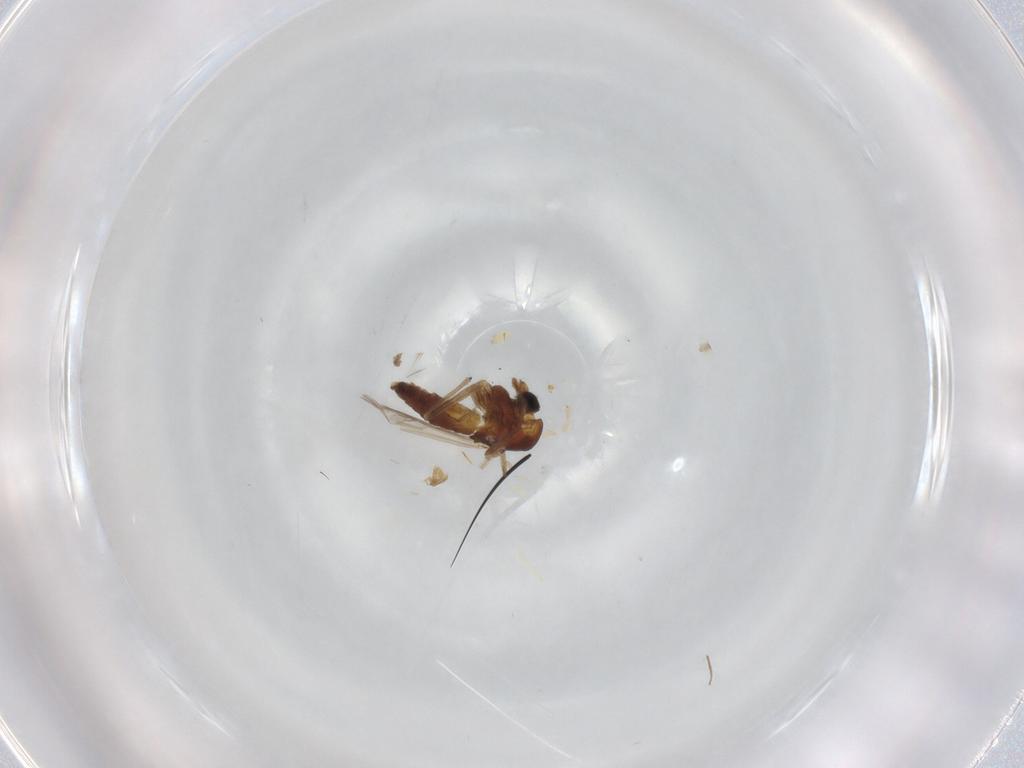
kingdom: Animalia
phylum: Arthropoda
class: Insecta
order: Diptera
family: Chironomidae
